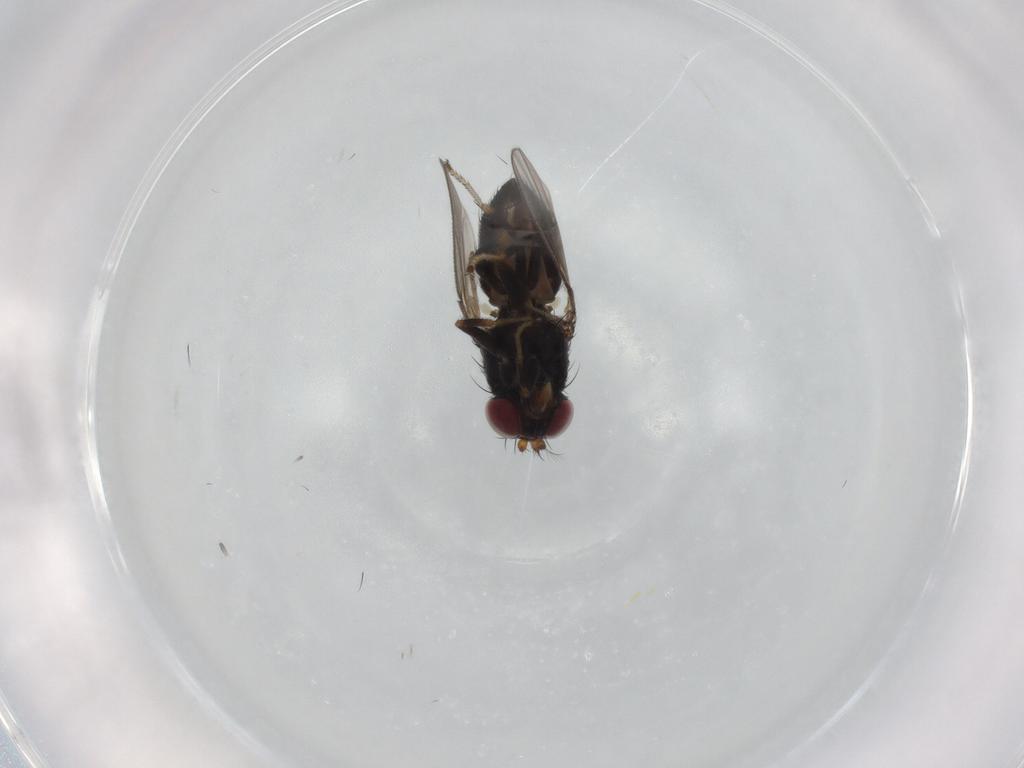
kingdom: Animalia
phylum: Arthropoda
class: Insecta
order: Diptera
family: Ephydridae
